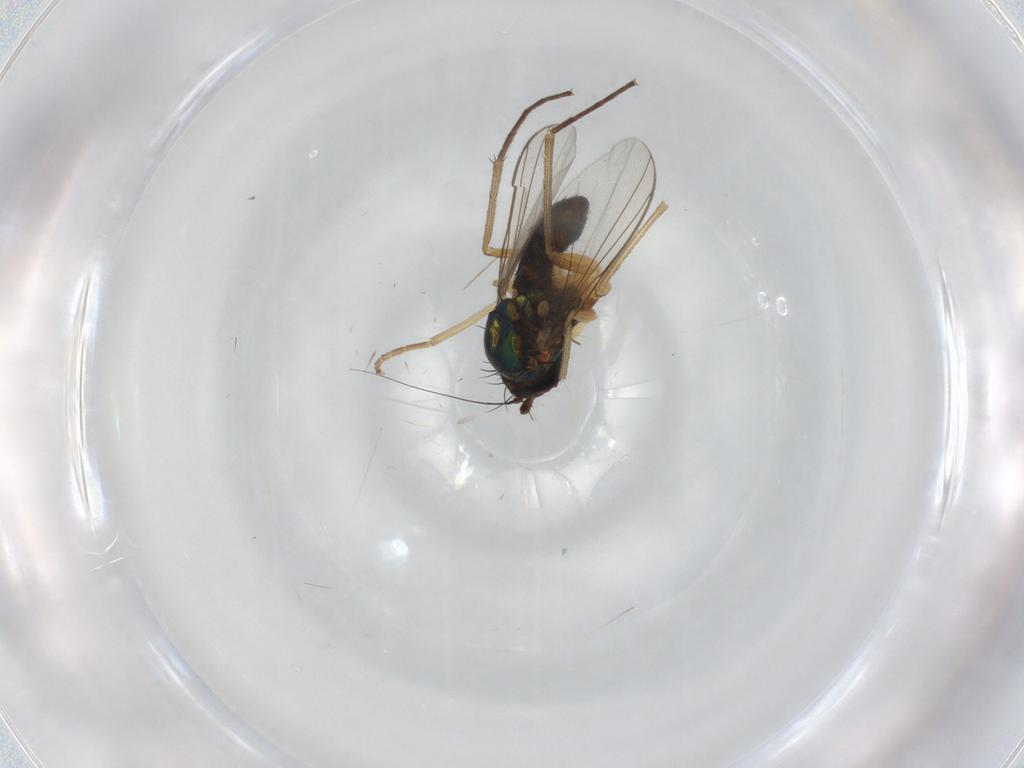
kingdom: Animalia
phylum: Arthropoda
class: Insecta
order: Diptera
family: Dolichopodidae
